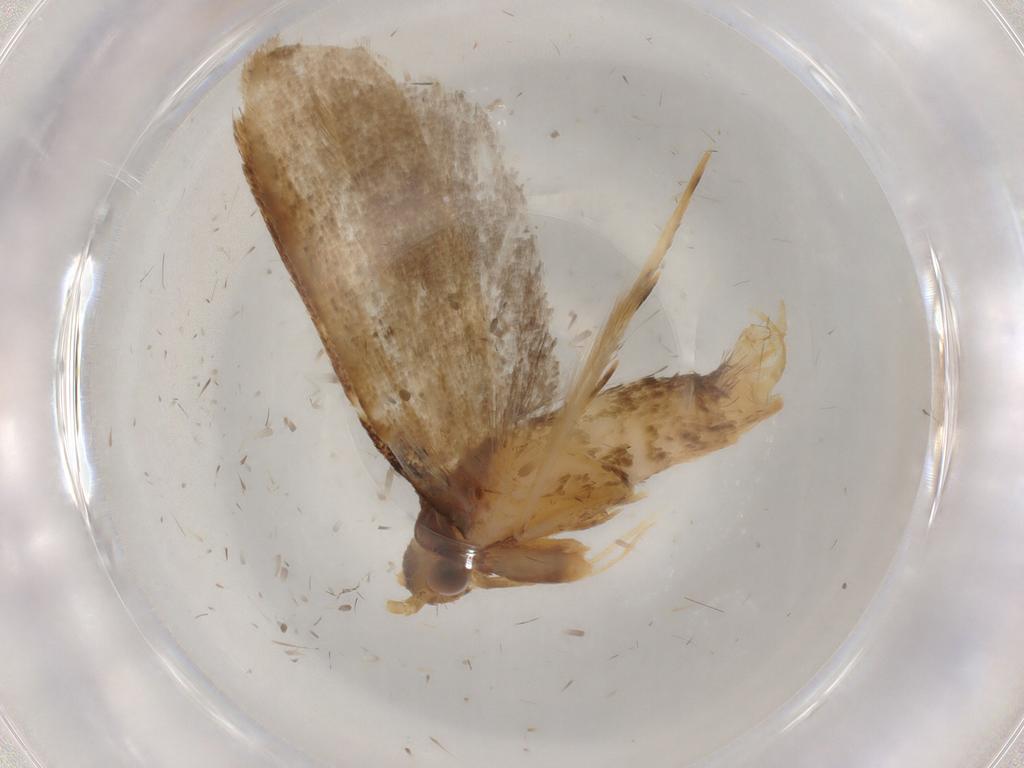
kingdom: Animalia
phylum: Arthropoda
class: Insecta
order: Lepidoptera
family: Lecithoceridae
